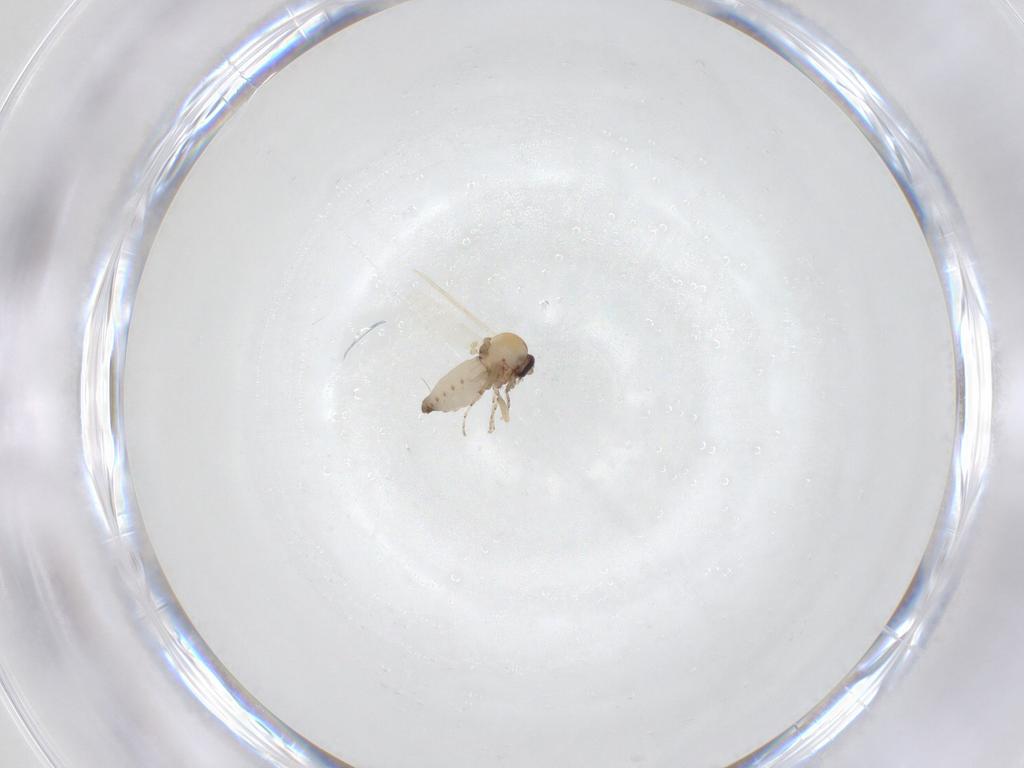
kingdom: Animalia
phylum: Arthropoda
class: Insecta
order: Diptera
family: Ceratopogonidae
